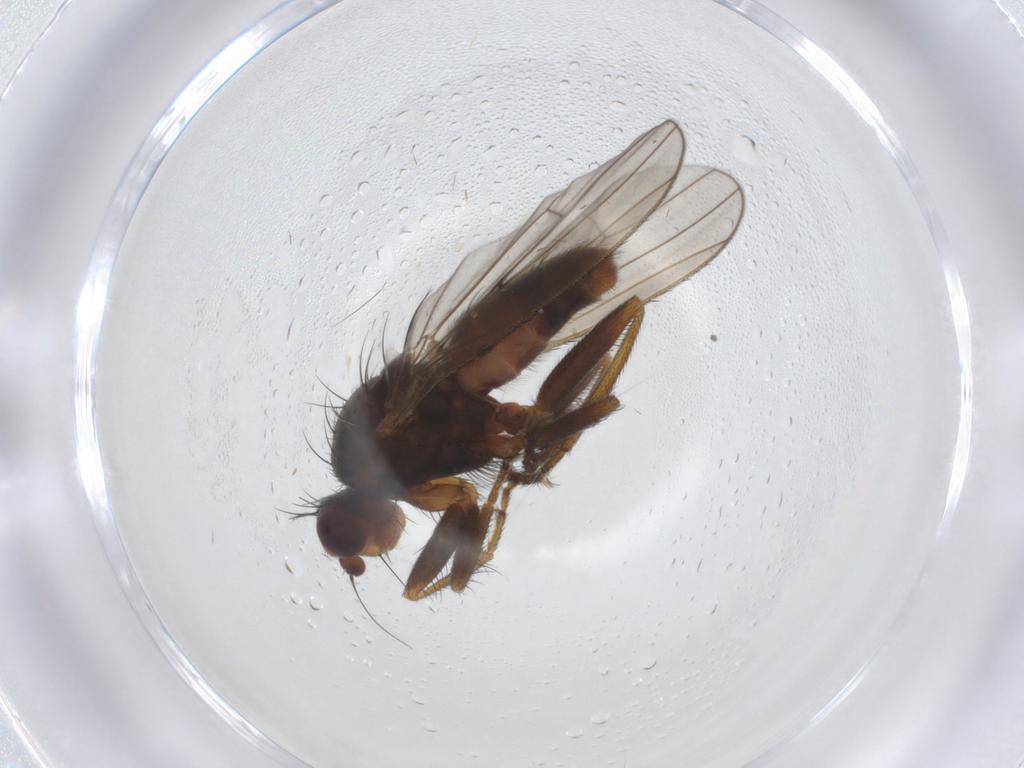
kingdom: Animalia
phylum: Arthropoda
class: Insecta
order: Diptera
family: Heleomyzidae
